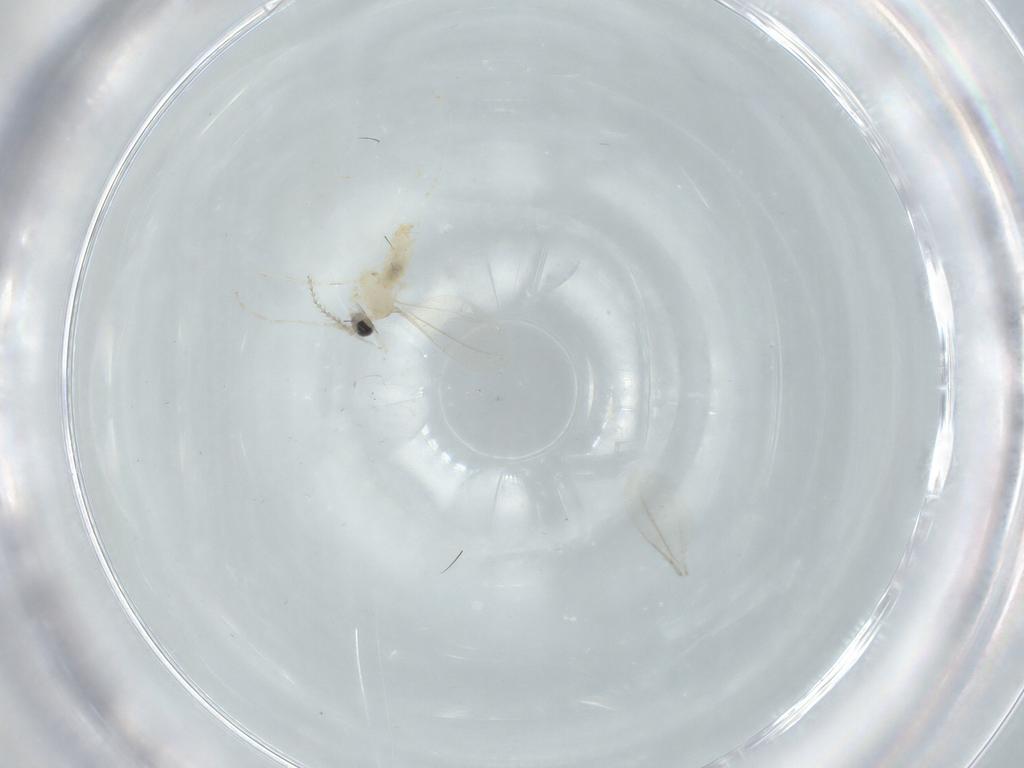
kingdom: Animalia
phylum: Arthropoda
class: Insecta
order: Diptera
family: Cecidomyiidae
